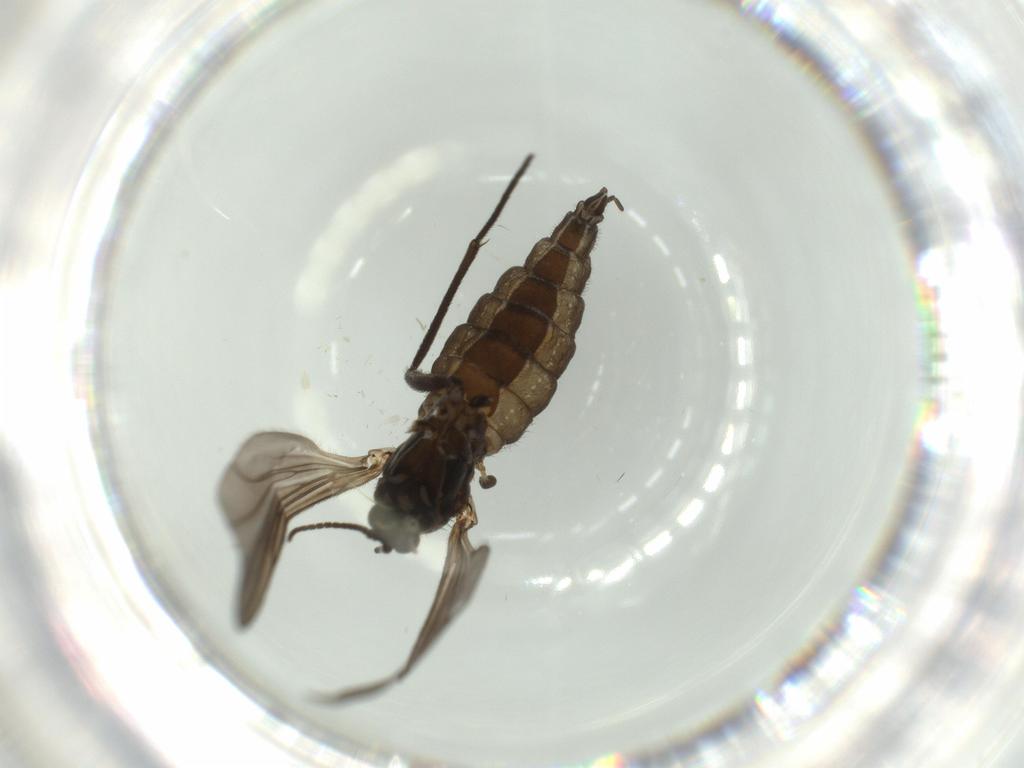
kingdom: Animalia
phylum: Arthropoda
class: Insecta
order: Diptera
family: Sciaridae
